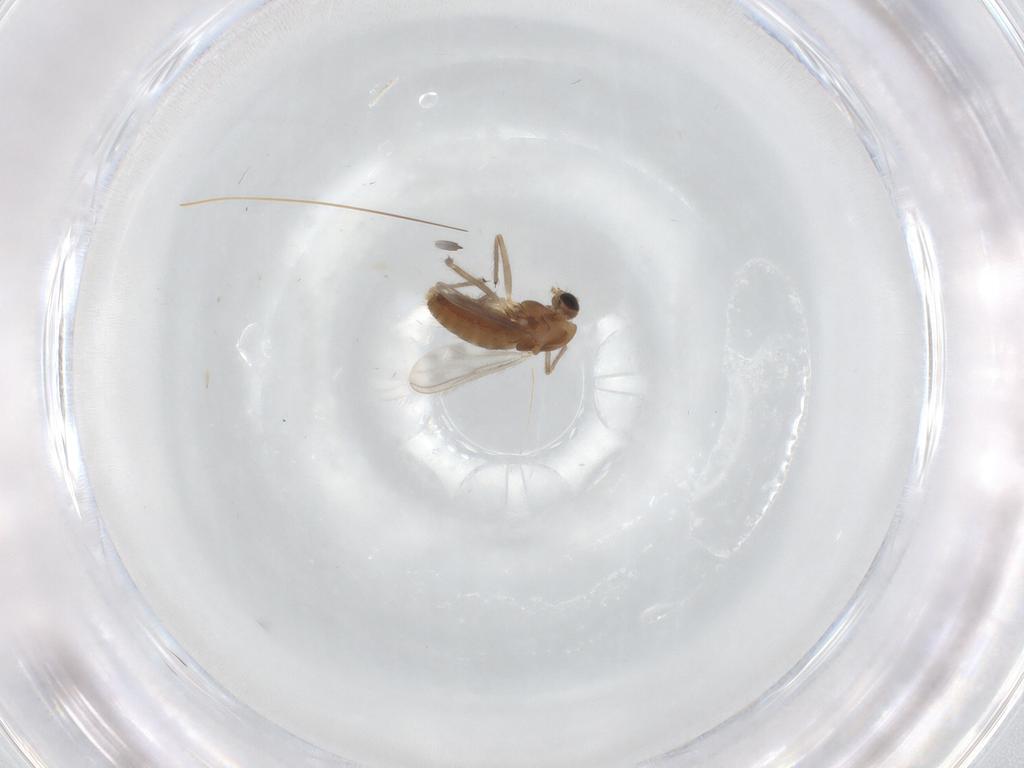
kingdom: Animalia
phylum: Arthropoda
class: Insecta
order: Diptera
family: Chironomidae
